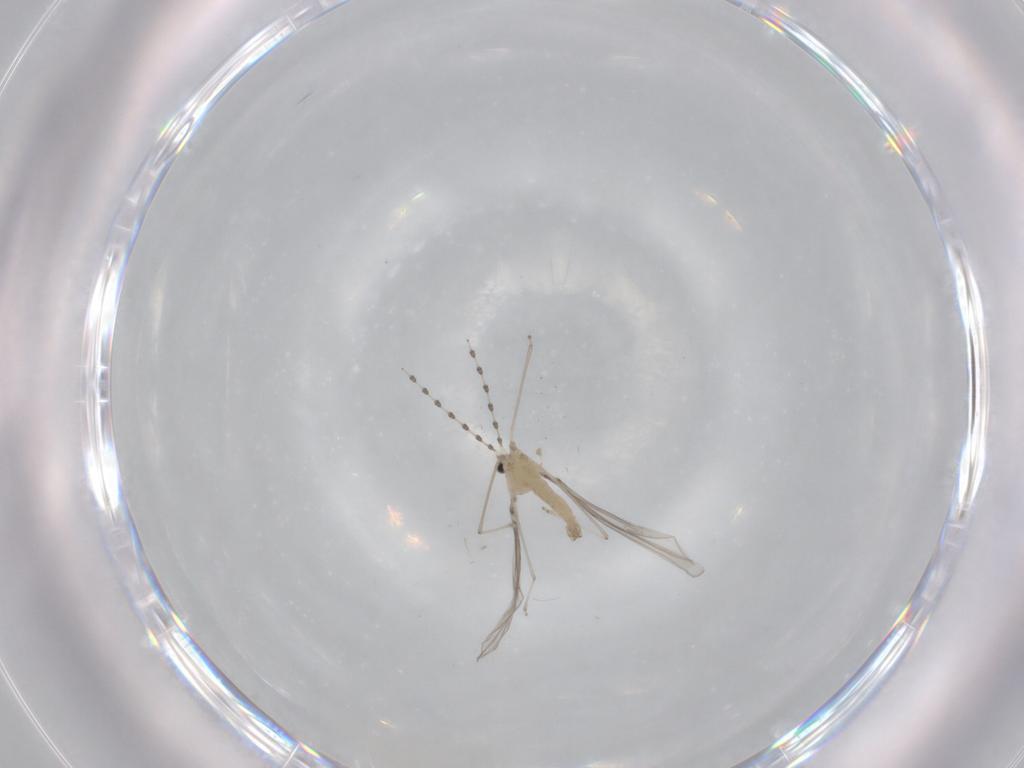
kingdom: Animalia
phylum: Arthropoda
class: Insecta
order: Diptera
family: Cecidomyiidae
